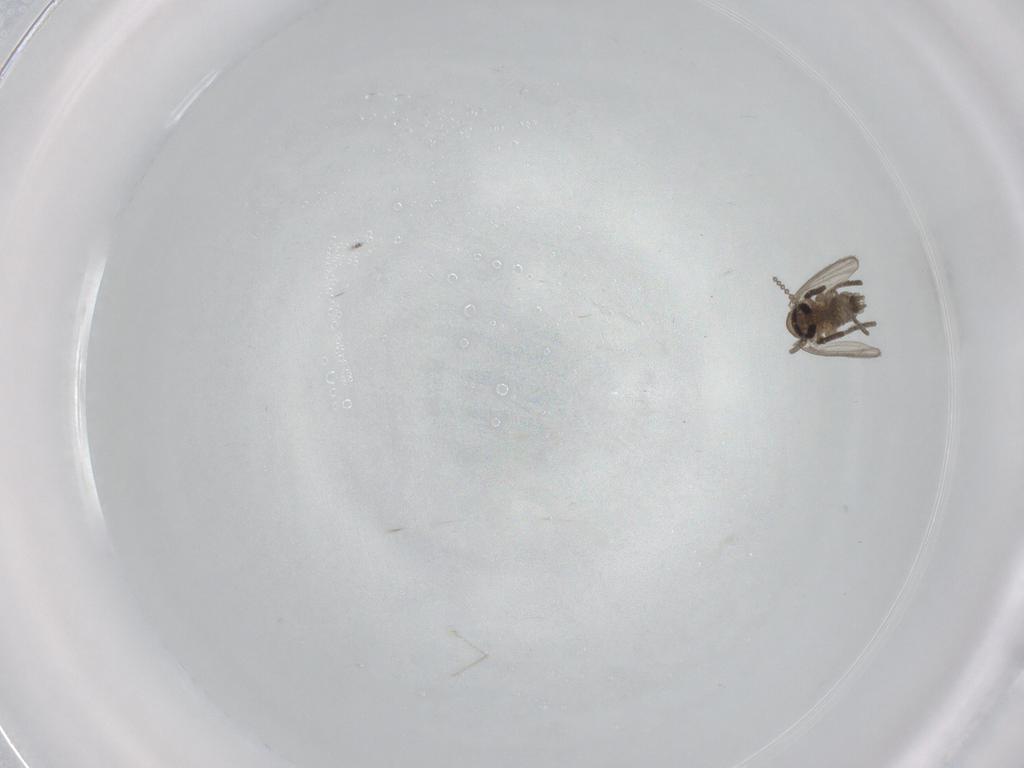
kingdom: Animalia
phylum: Arthropoda
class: Insecta
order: Diptera
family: Psychodidae
